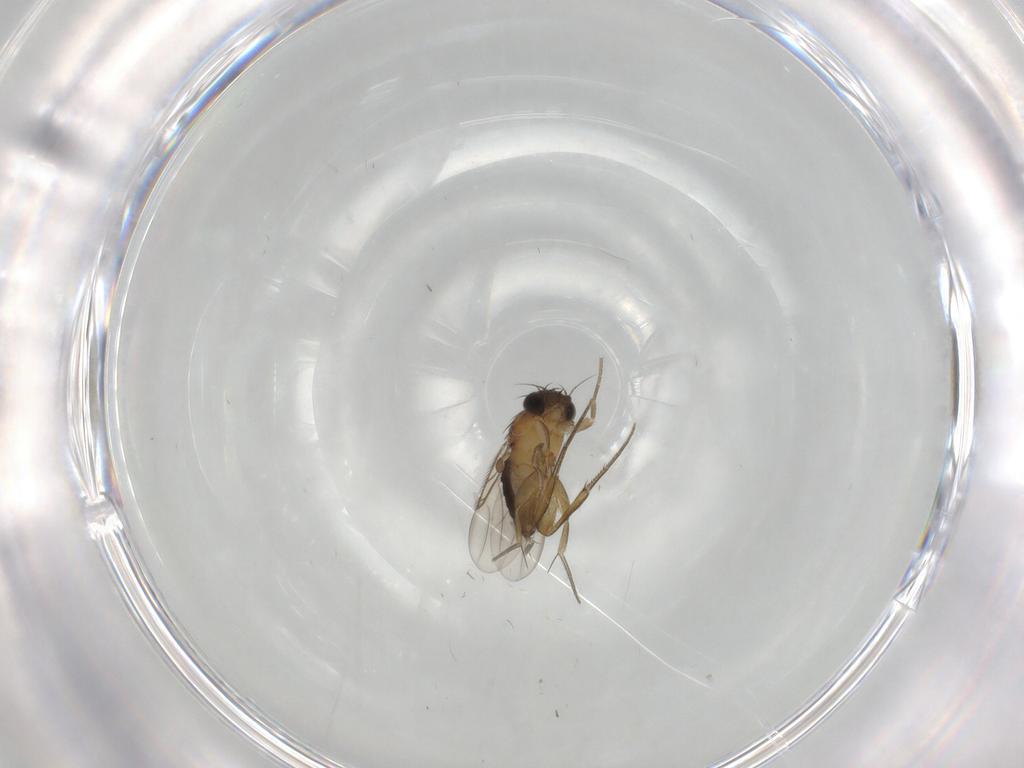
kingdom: Animalia
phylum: Arthropoda
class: Insecta
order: Diptera
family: Phoridae
